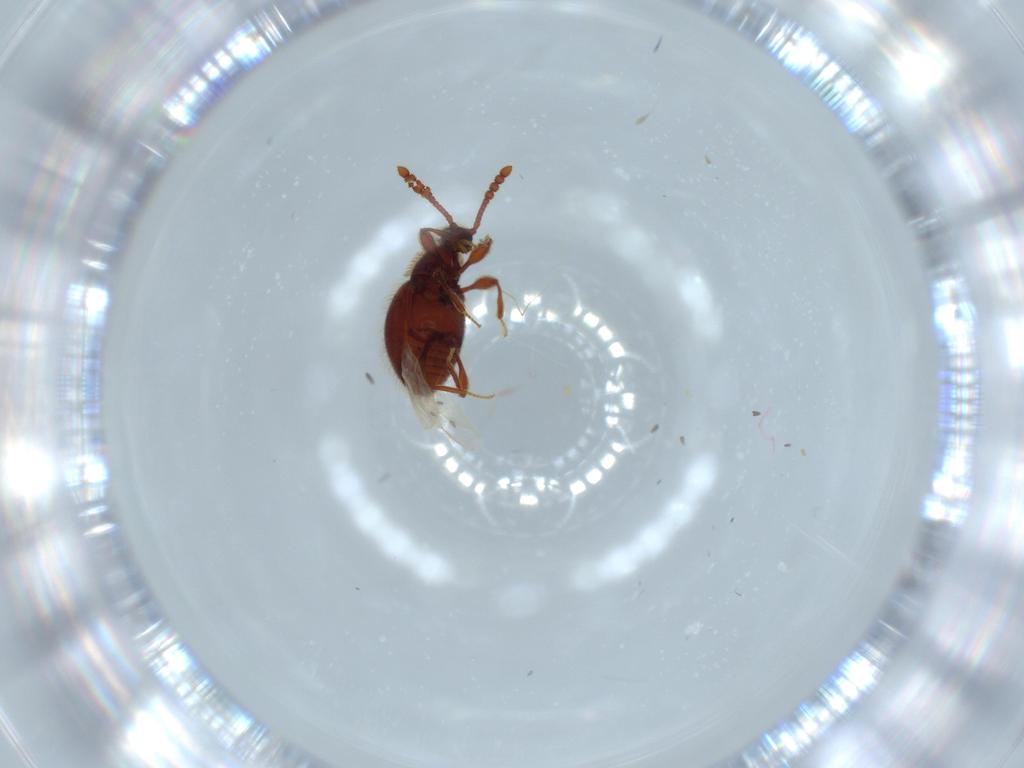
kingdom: Animalia
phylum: Arthropoda
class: Insecta
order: Coleoptera
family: Staphylinidae
